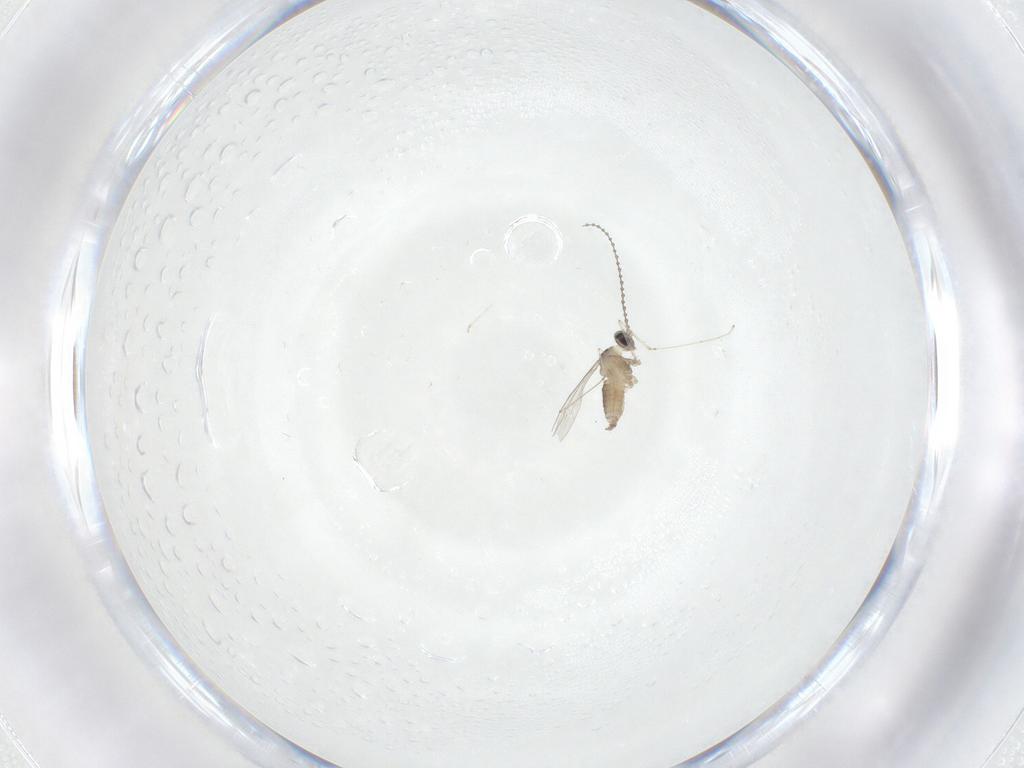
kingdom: Animalia
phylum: Arthropoda
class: Insecta
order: Diptera
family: Cecidomyiidae
